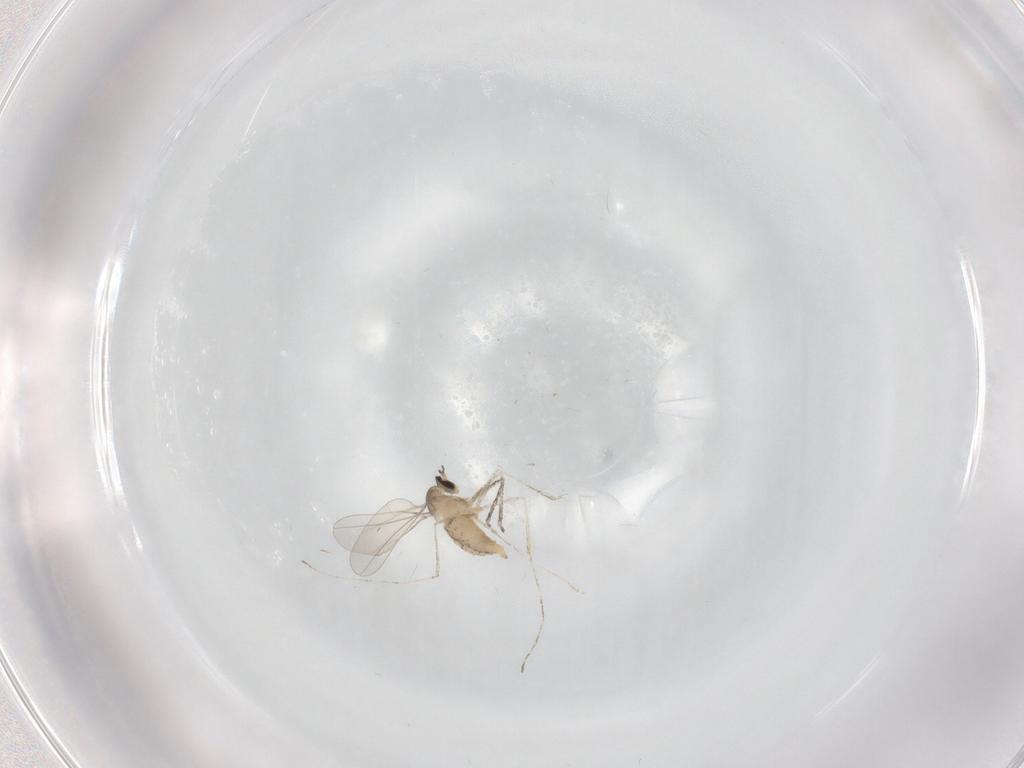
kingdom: Animalia
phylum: Arthropoda
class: Insecta
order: Diptera
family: Cecidomyiidae
